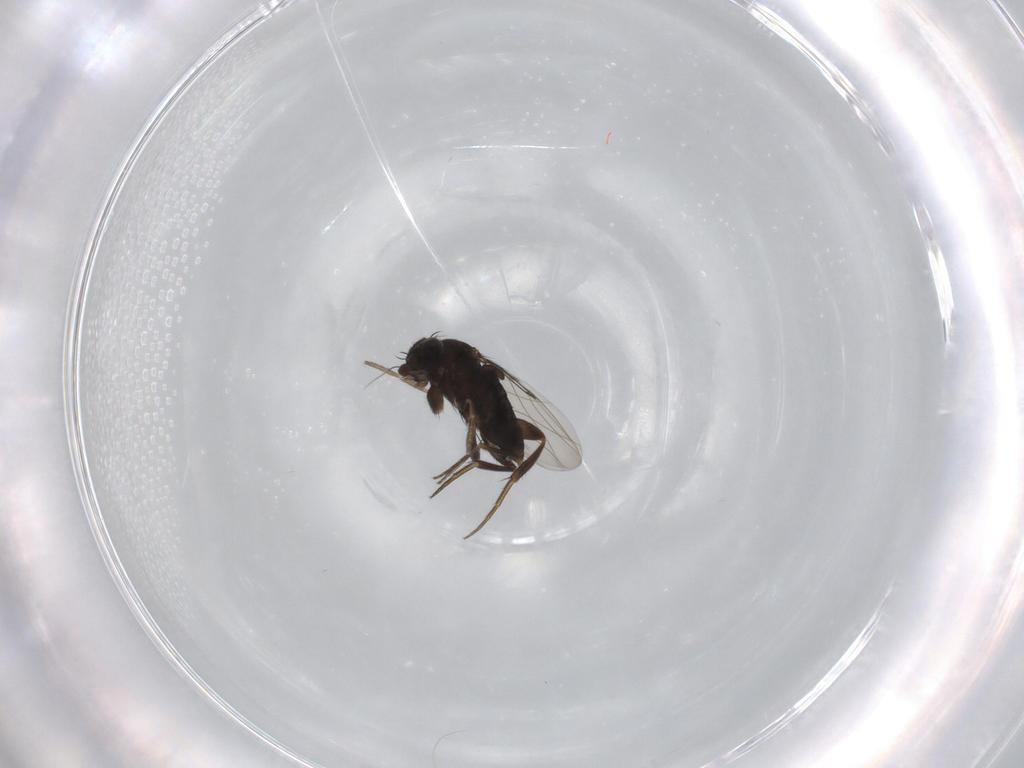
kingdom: Animalia
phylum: Arthropoda
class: Insecta
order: Diptera
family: Phoridae
